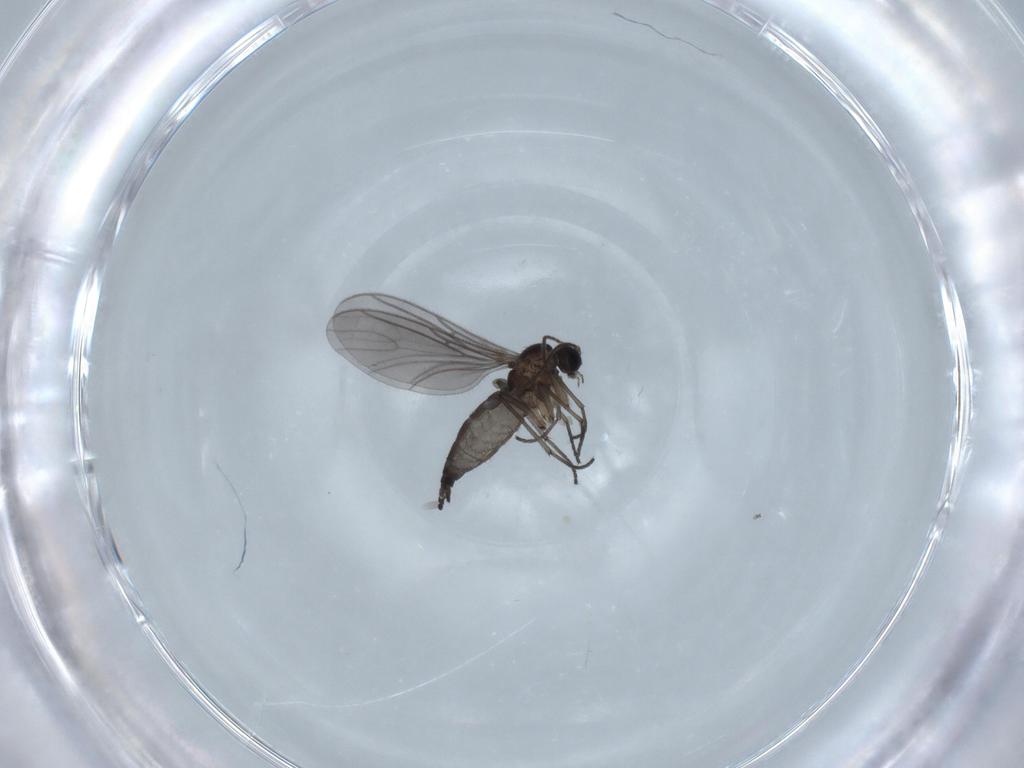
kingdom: Animalia
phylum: Arthropoda
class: Insecta
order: Diptera
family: Sciaridae
